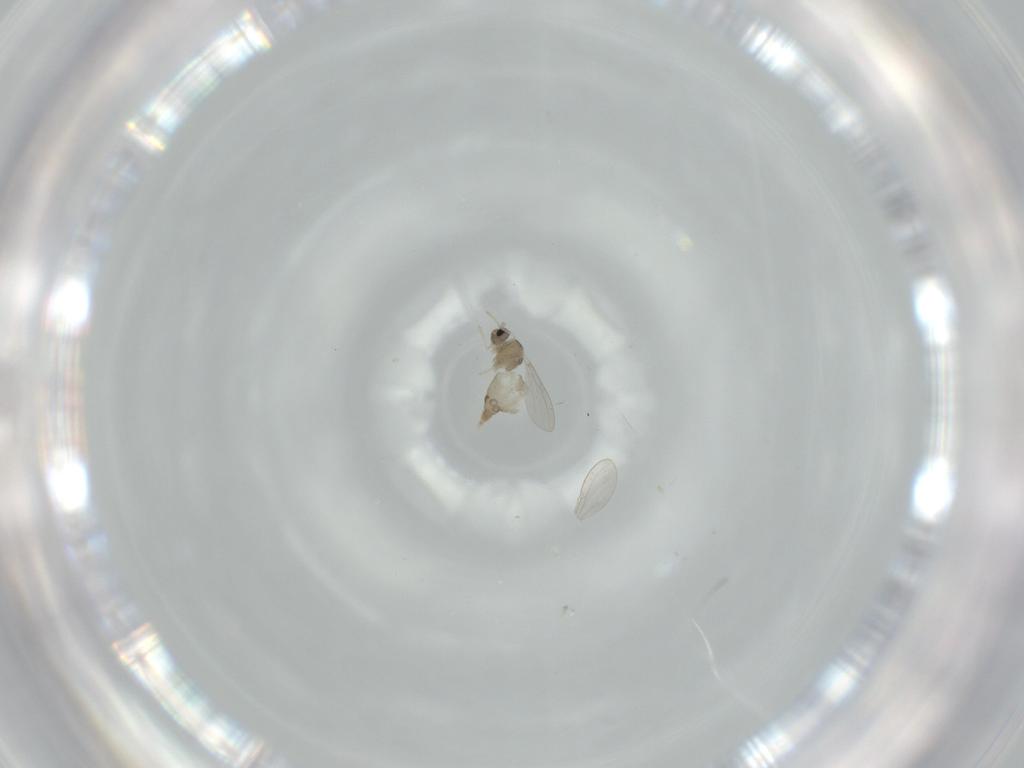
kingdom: Animalia
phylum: Arthropoda
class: Insecta
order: Diptera
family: Cecidomyiidae
